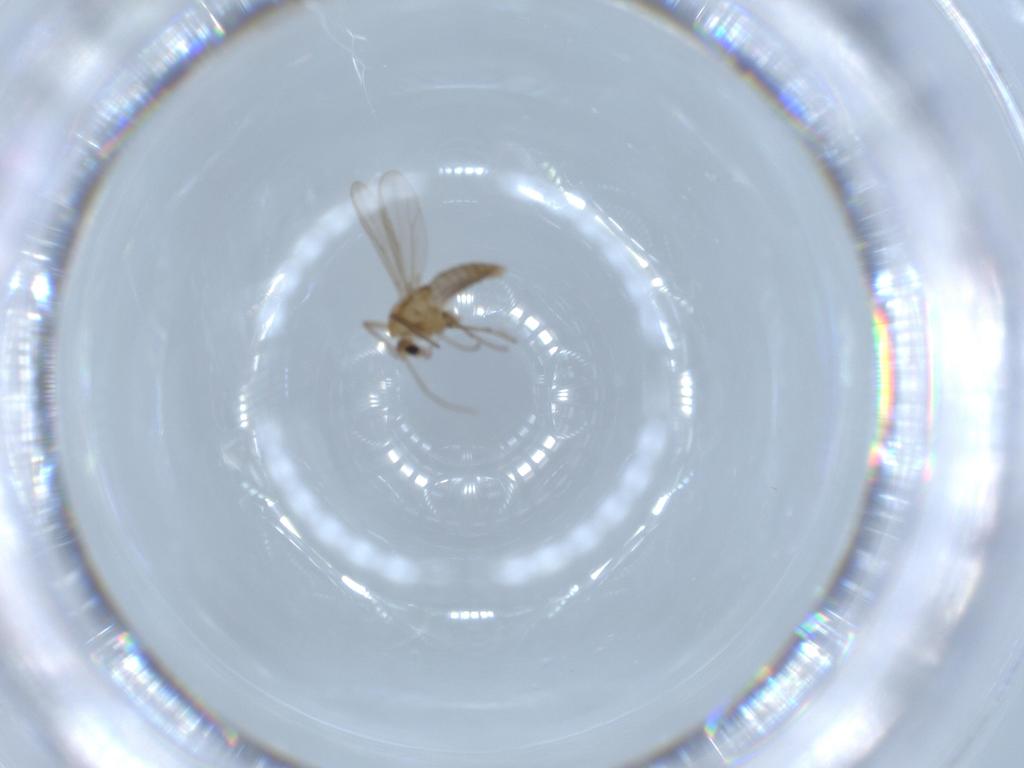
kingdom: Animalia
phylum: Arthropoda
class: Insecta
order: Diptera
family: Chironomidae
